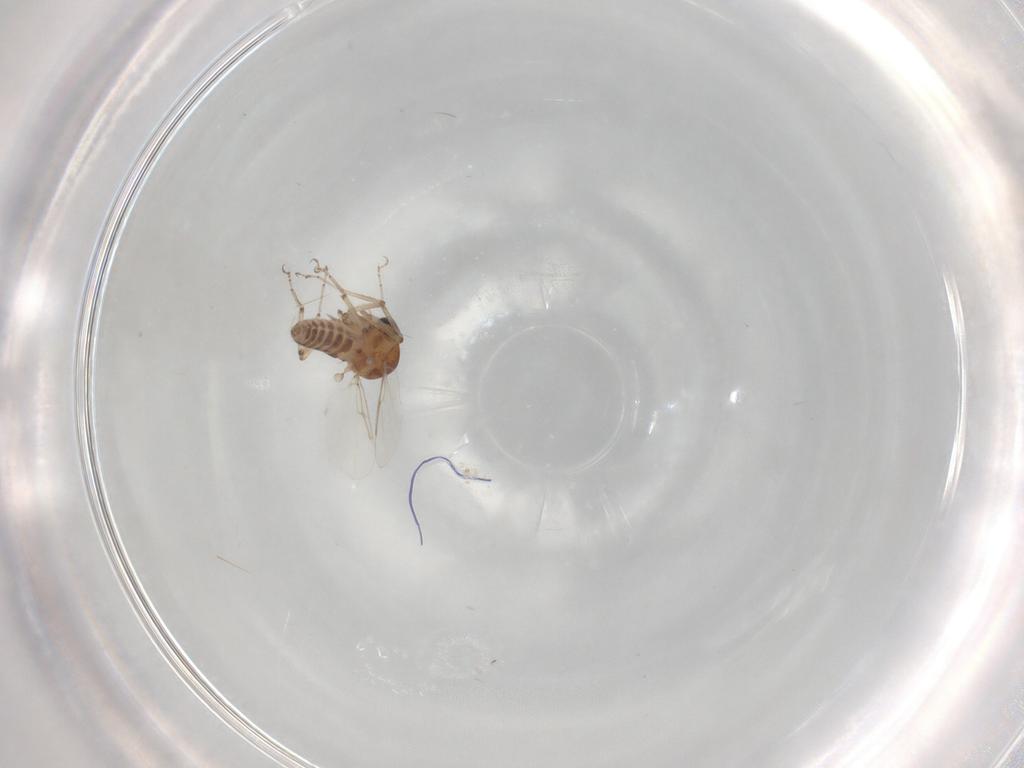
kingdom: Animalia
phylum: Arthropoda
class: Insecta
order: Diptera
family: Ceratopogonidae
